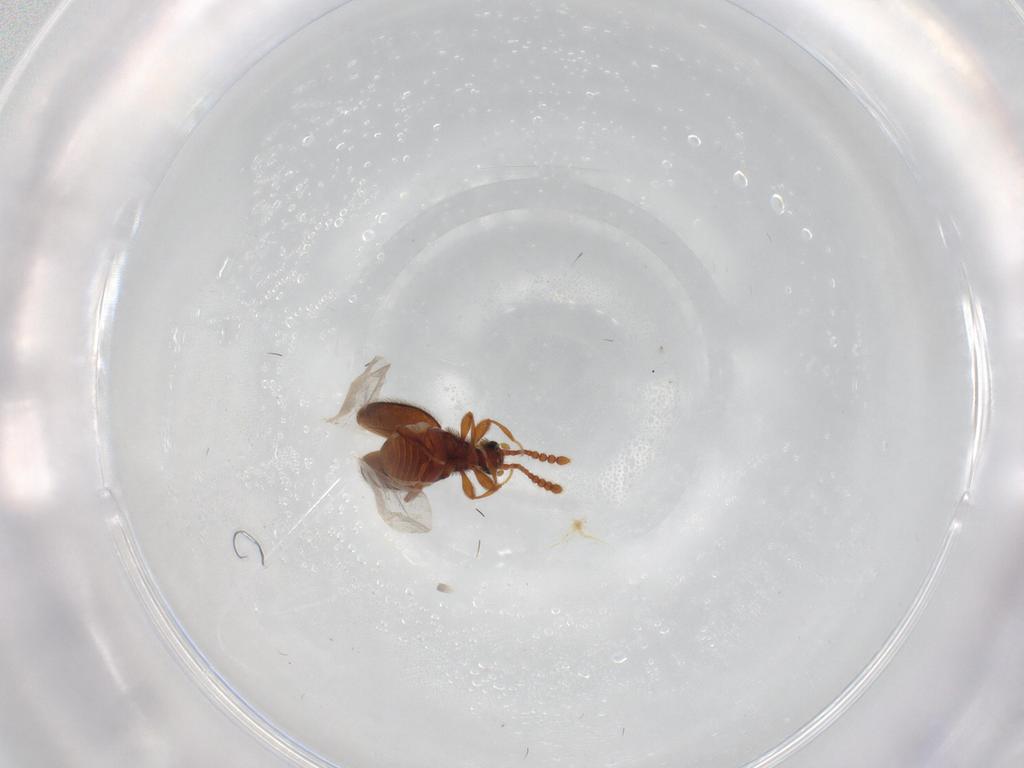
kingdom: Animalia
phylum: Arthropoda
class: Insecta
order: Coleoptera
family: Staphylinidae
